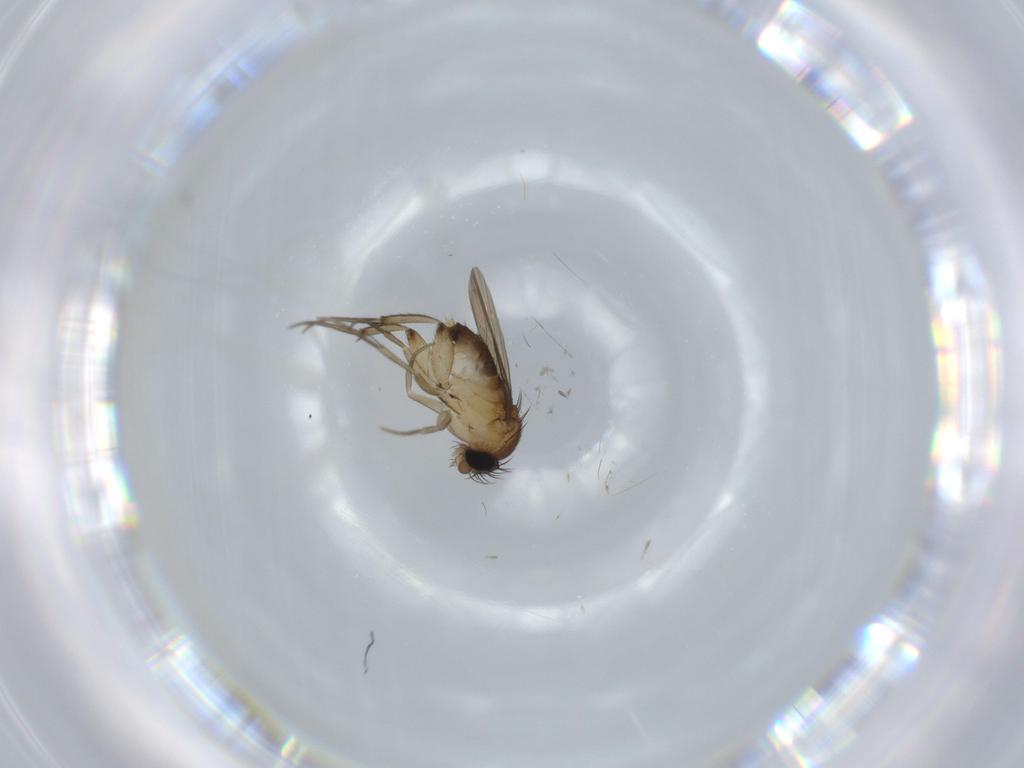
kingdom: Animalia
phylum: Arthropoda
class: Insecta
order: Diptera
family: Phoridae
